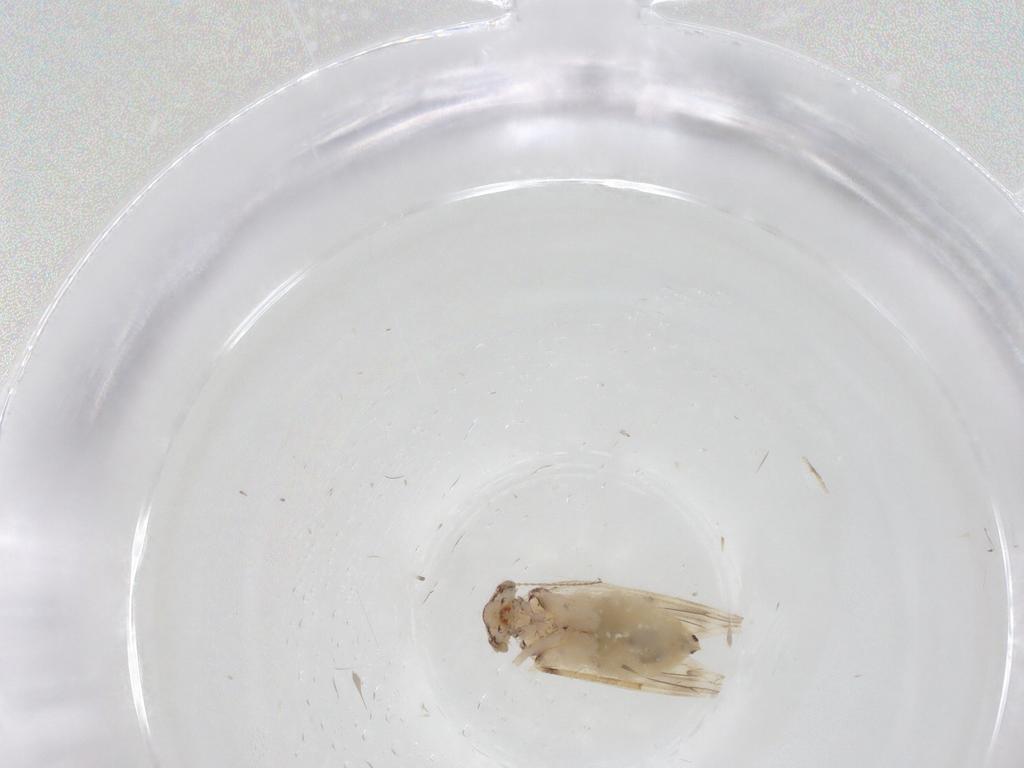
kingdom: Animalia
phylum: Arthropoda
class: Insecta
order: Psocodea
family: Lepidopsocidae
